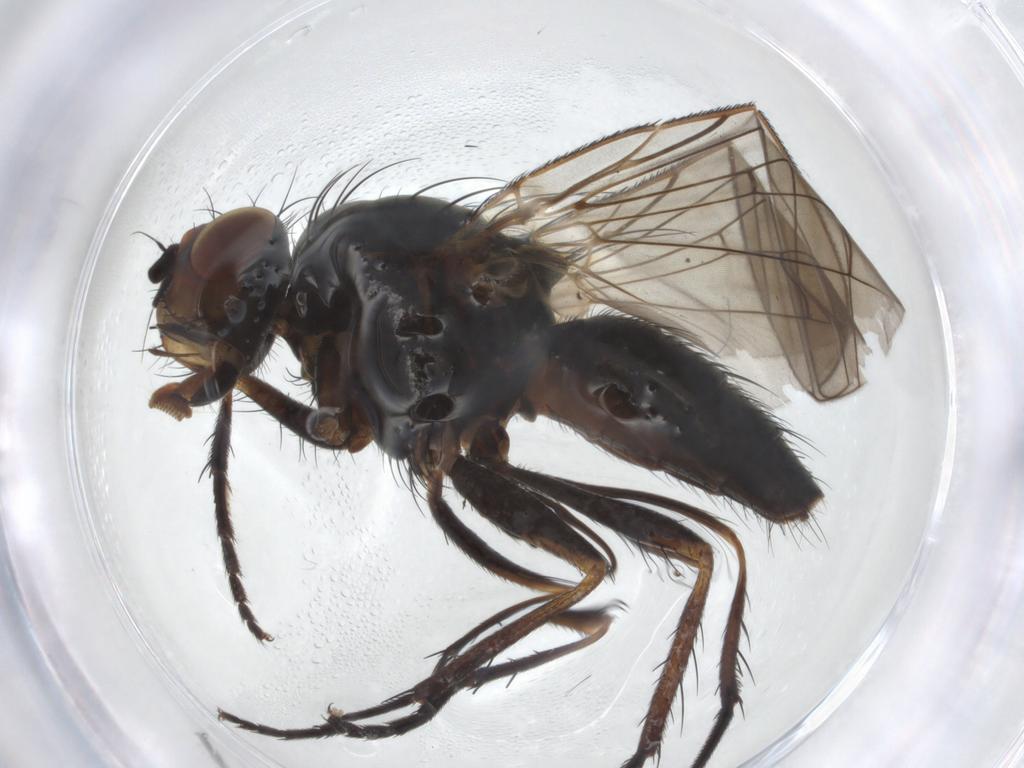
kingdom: Animalia
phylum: Arthropoda
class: Insecta
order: Diptera
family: Anthomyiidae
